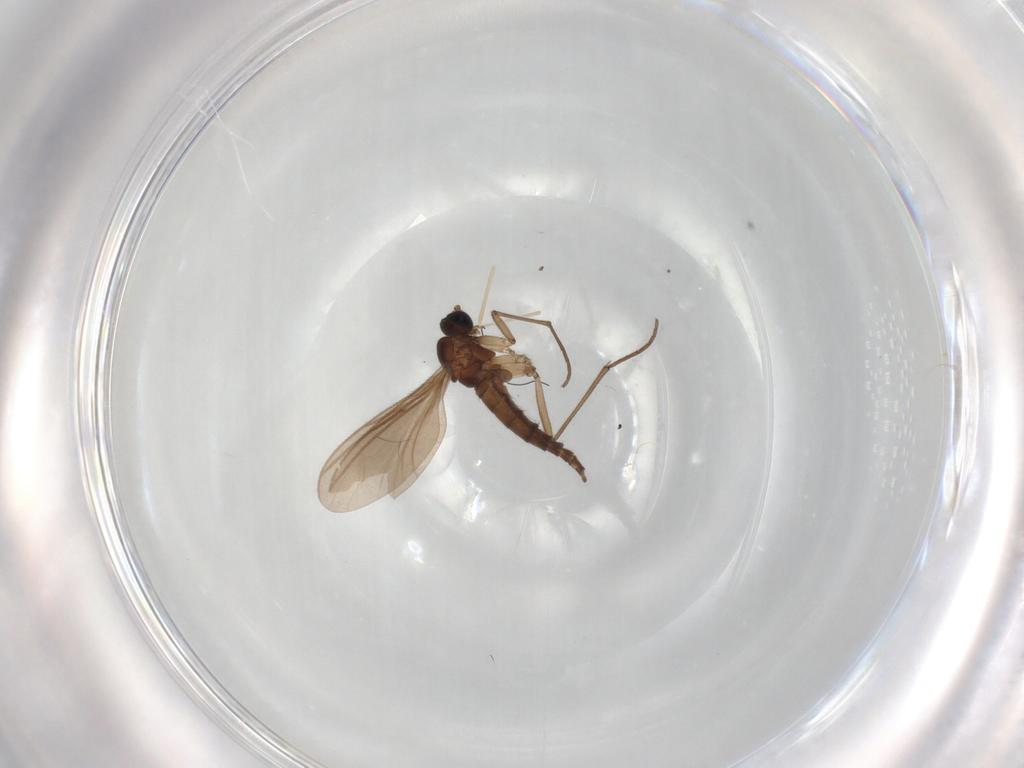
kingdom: Animalia
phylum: Arthropoda
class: Insecta
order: Diptera
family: Sciaridae
